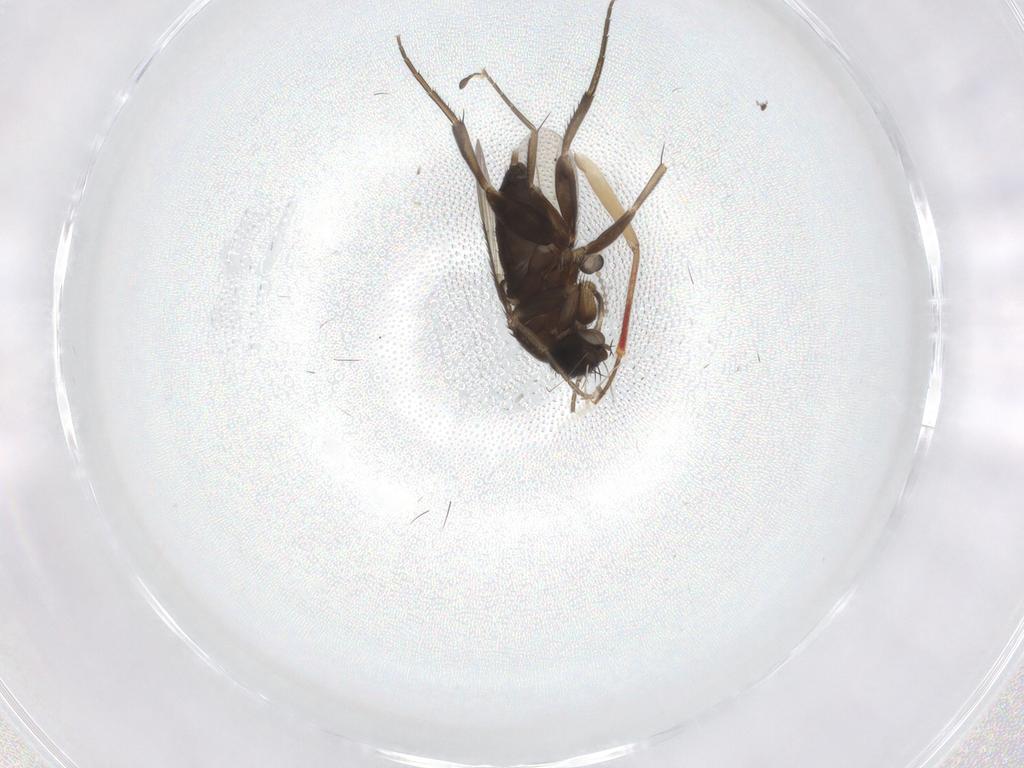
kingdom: Animalia
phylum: Arthropoda
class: Insecta
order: Diptera
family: Phoridae
